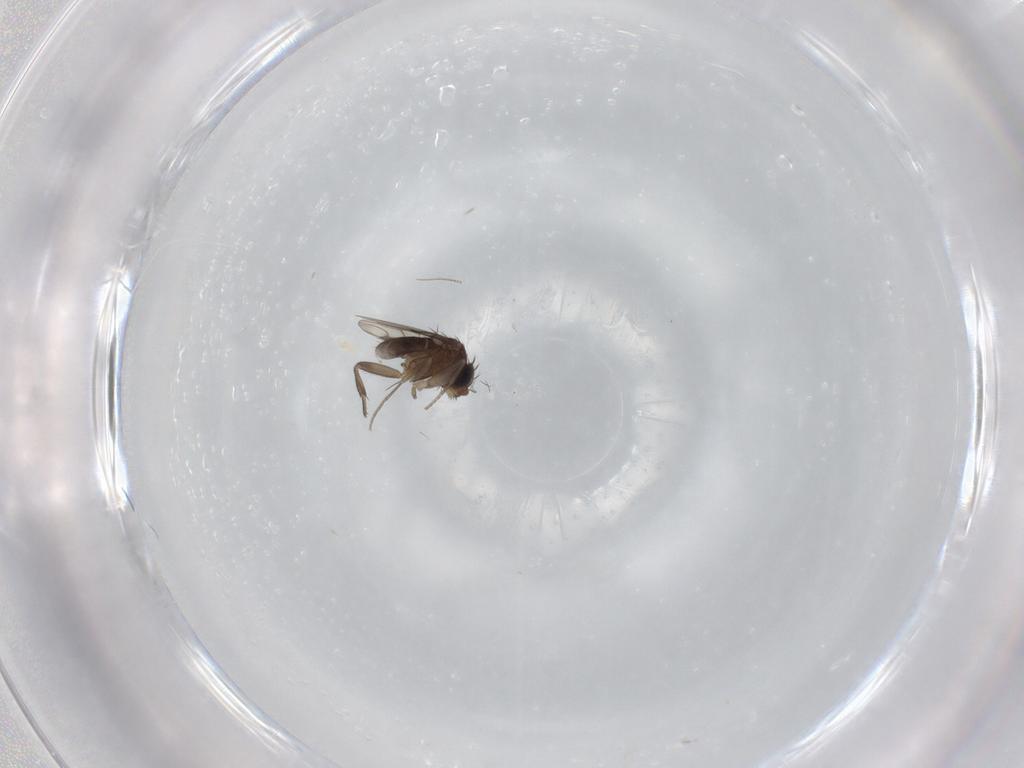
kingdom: Animalia
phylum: Arthropoda
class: Insecta
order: Diptera
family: Phoridae
